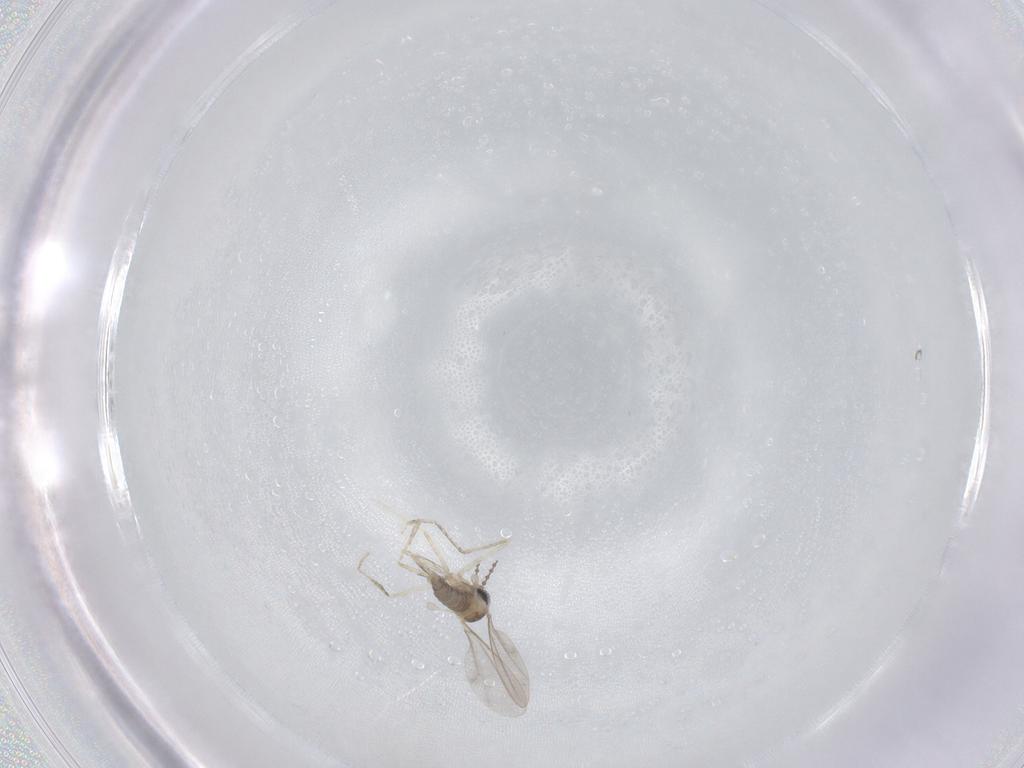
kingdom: Animalia
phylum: Arthropoda
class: Insecta
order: Diptera
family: Cecidomyiidae
